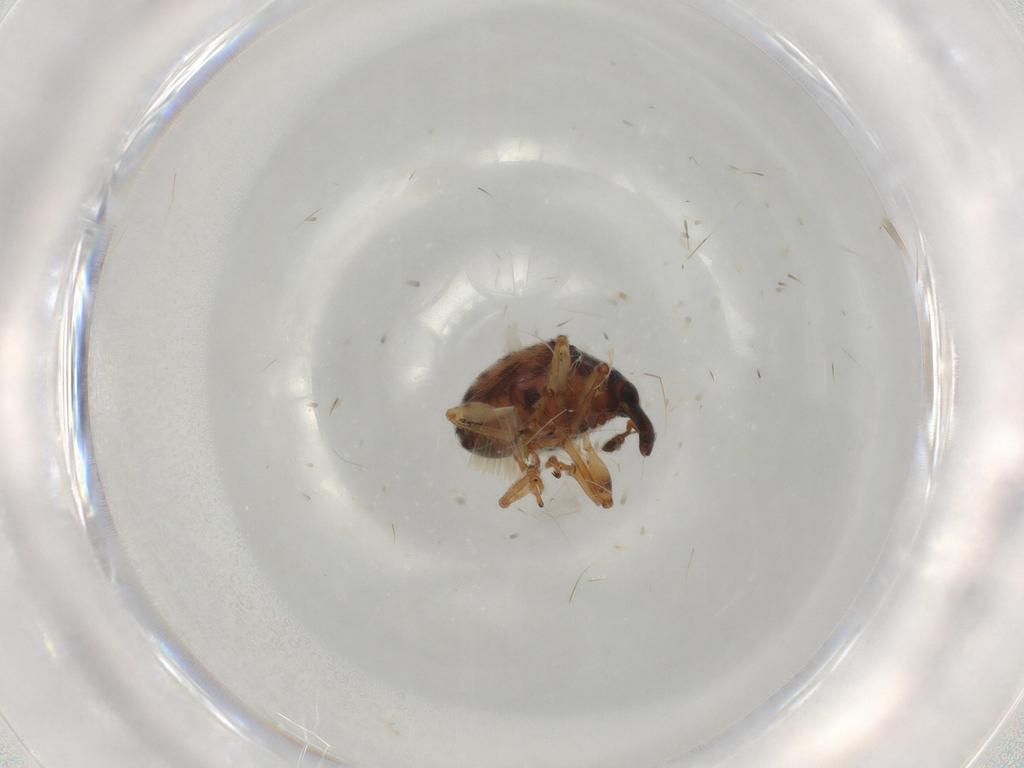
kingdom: Animalia
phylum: Arthropoda
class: Insecta
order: Coleoptera
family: Brentidae
